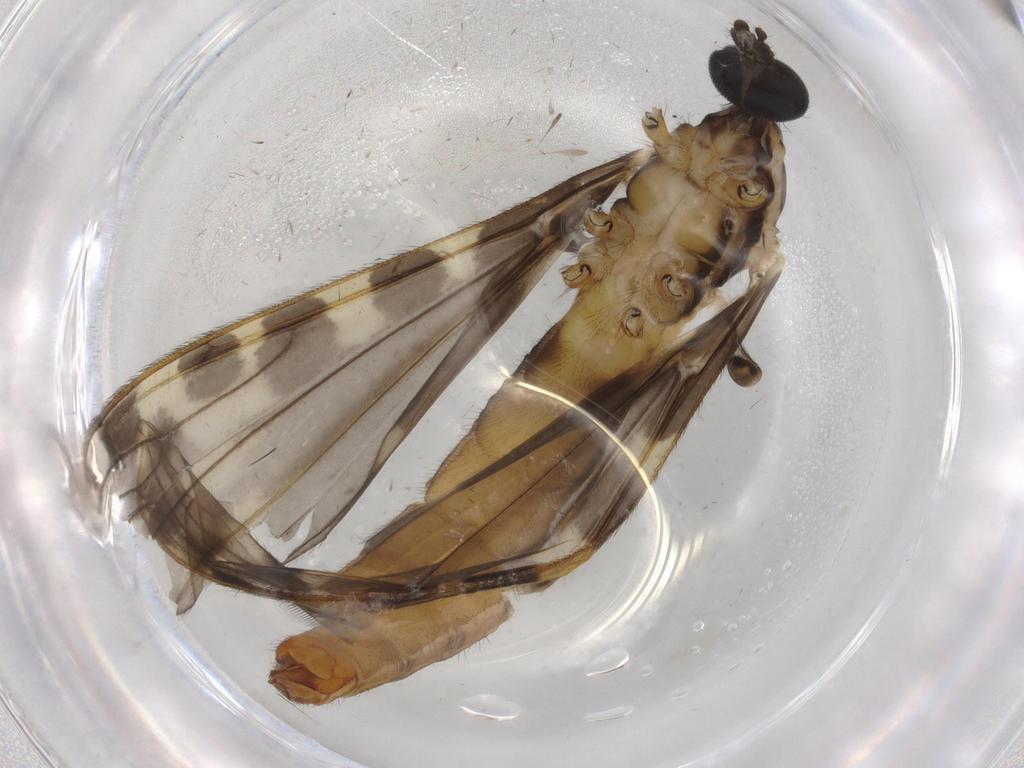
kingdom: Animalia
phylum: Arthropoda
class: Insecta
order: Diptera
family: Limoniidae
